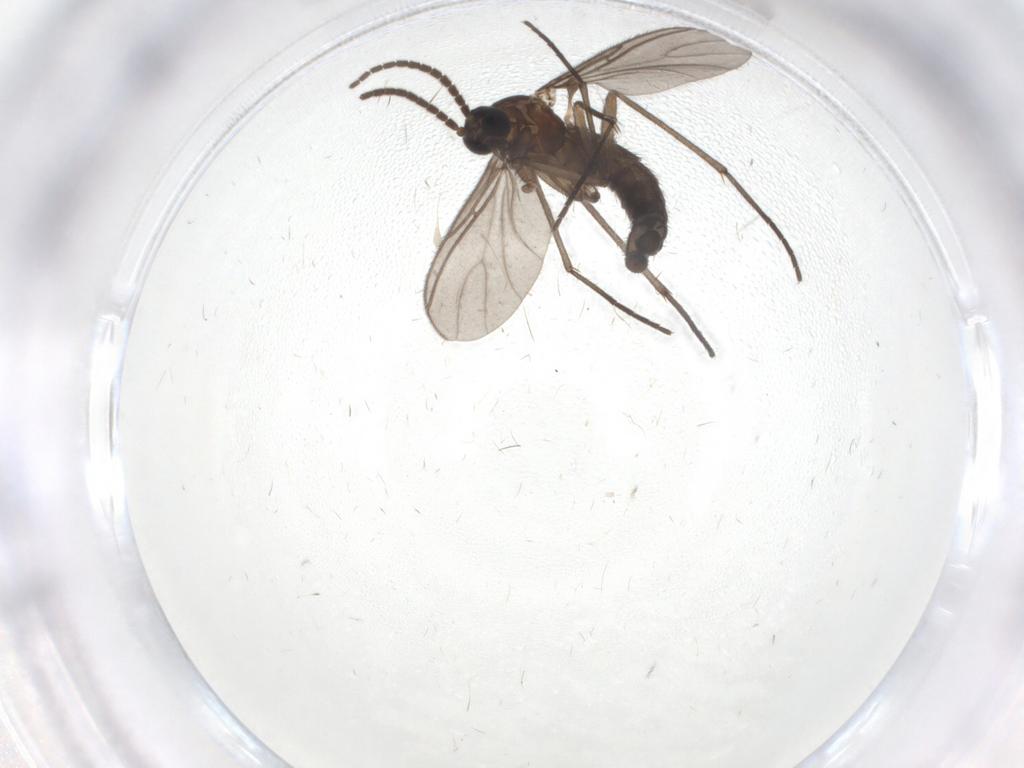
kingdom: Animalia
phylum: Arthropoda
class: Insecta
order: Diptera
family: Sciaridae
